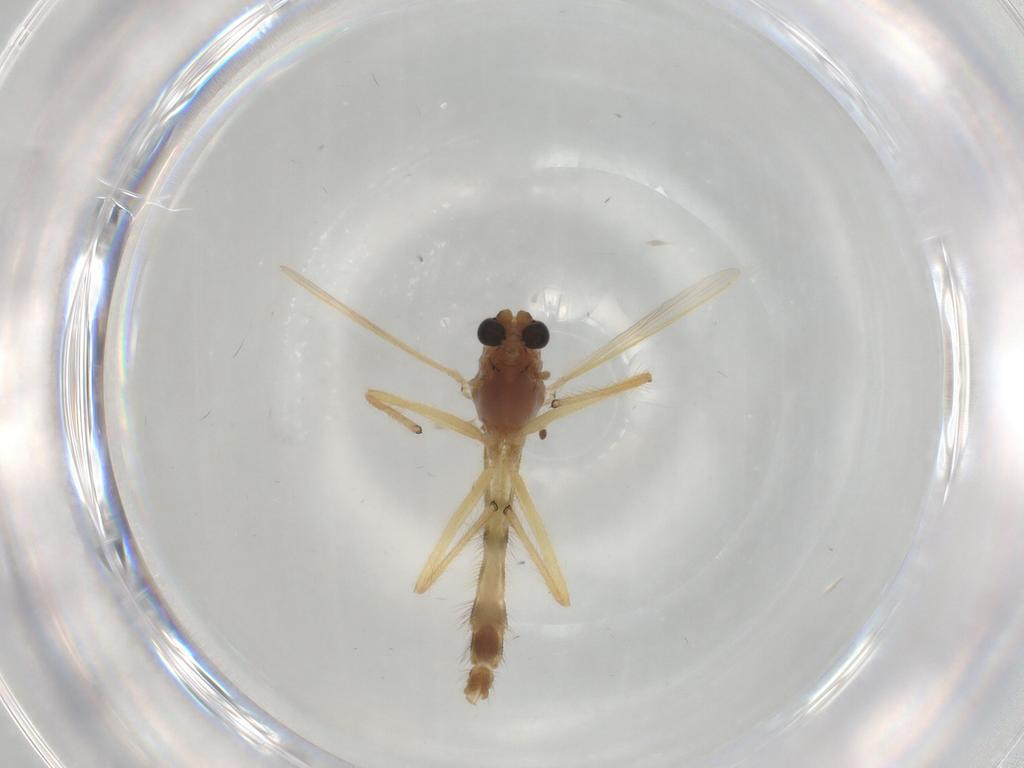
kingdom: Animalia
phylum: Arthropoda
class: Insecta
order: Diptera
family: Chironomidae
